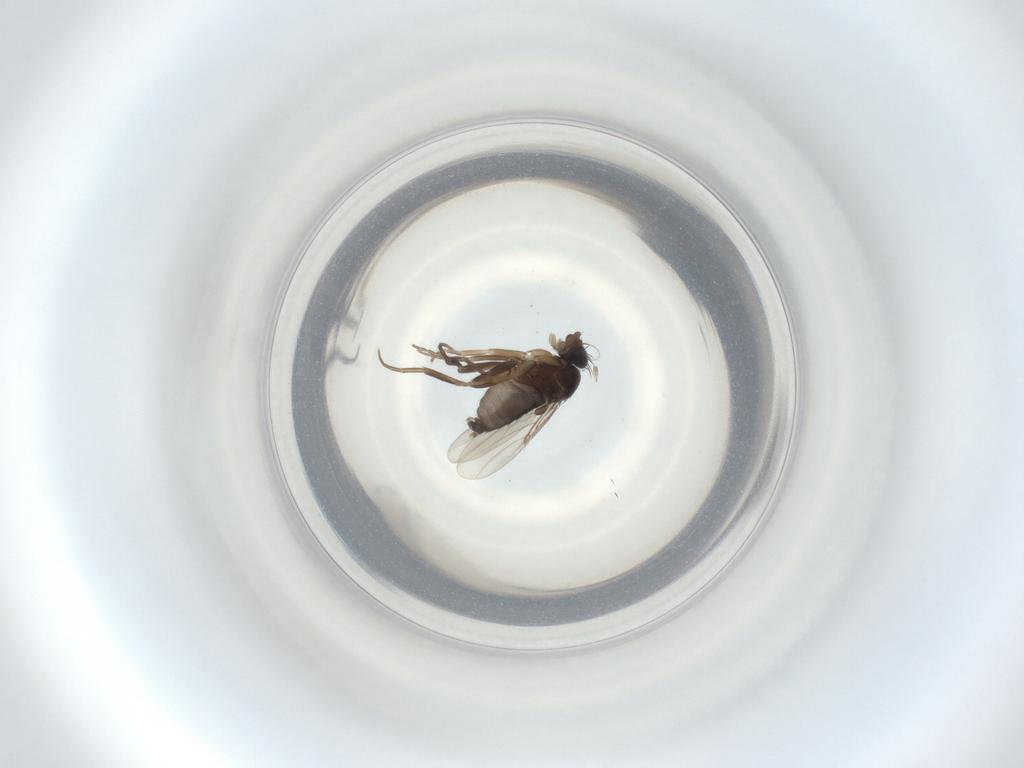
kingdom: Animalia
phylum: Arthropoda
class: Insecta
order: Diptera
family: Phoridae
